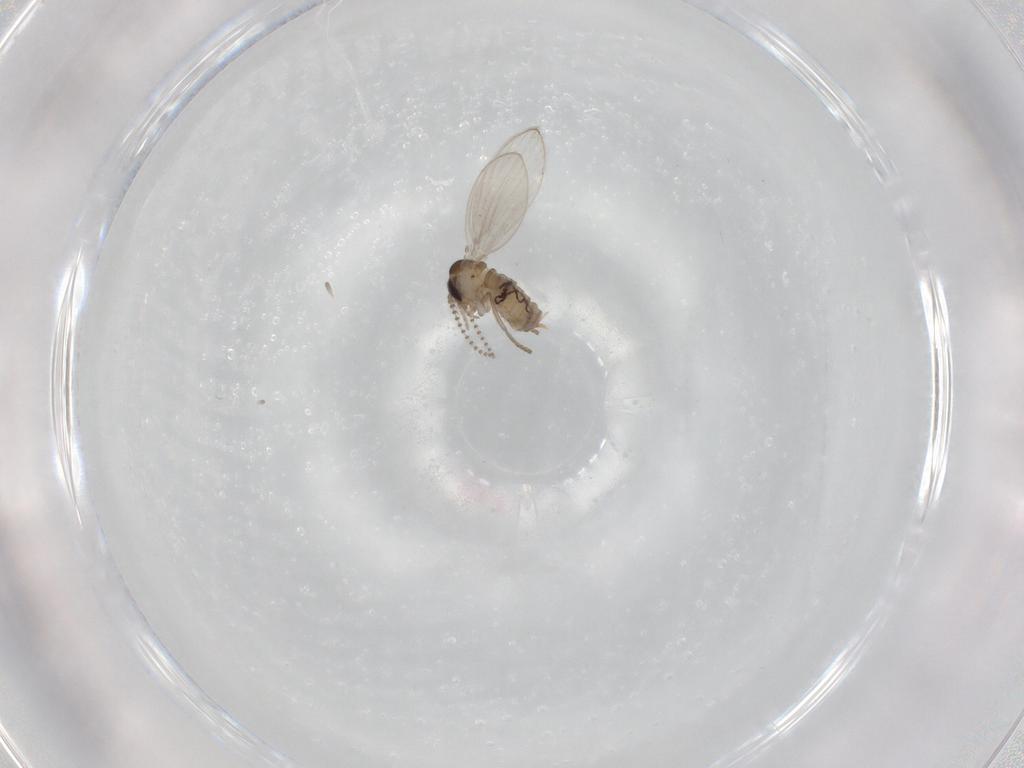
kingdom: Animalia
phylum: Arthropoda
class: Insecta
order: Diptera
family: Psychodidae
